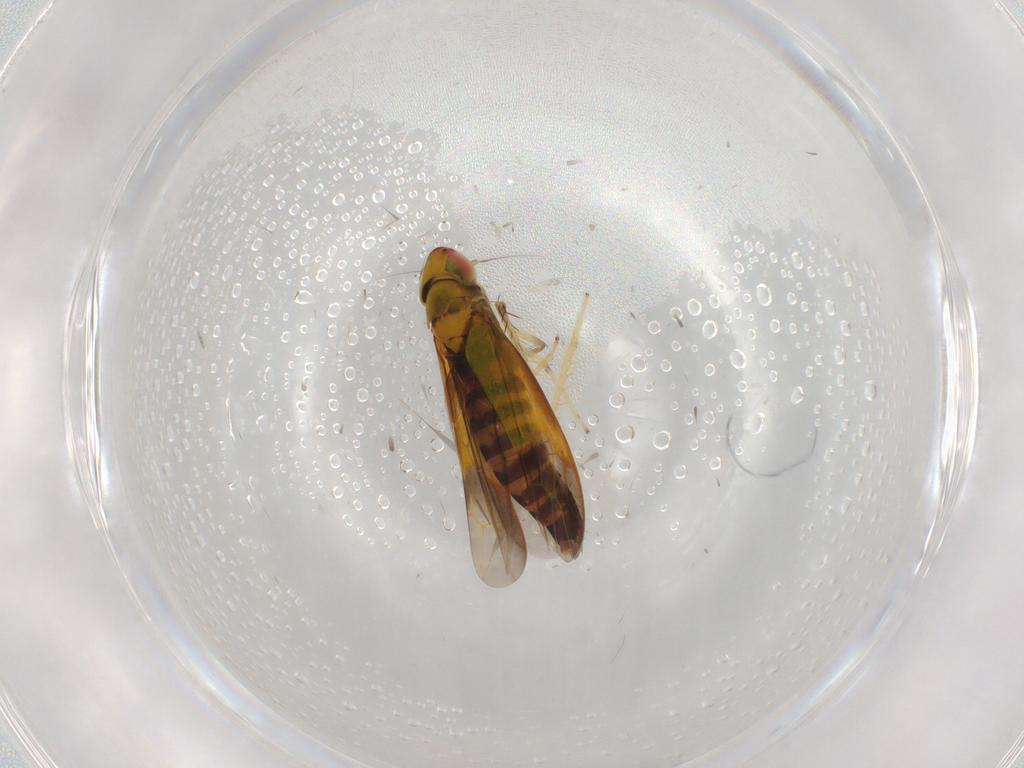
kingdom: Animalia
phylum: Arthropoda
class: Insecta
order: Hemiptera
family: Cicadellidae
